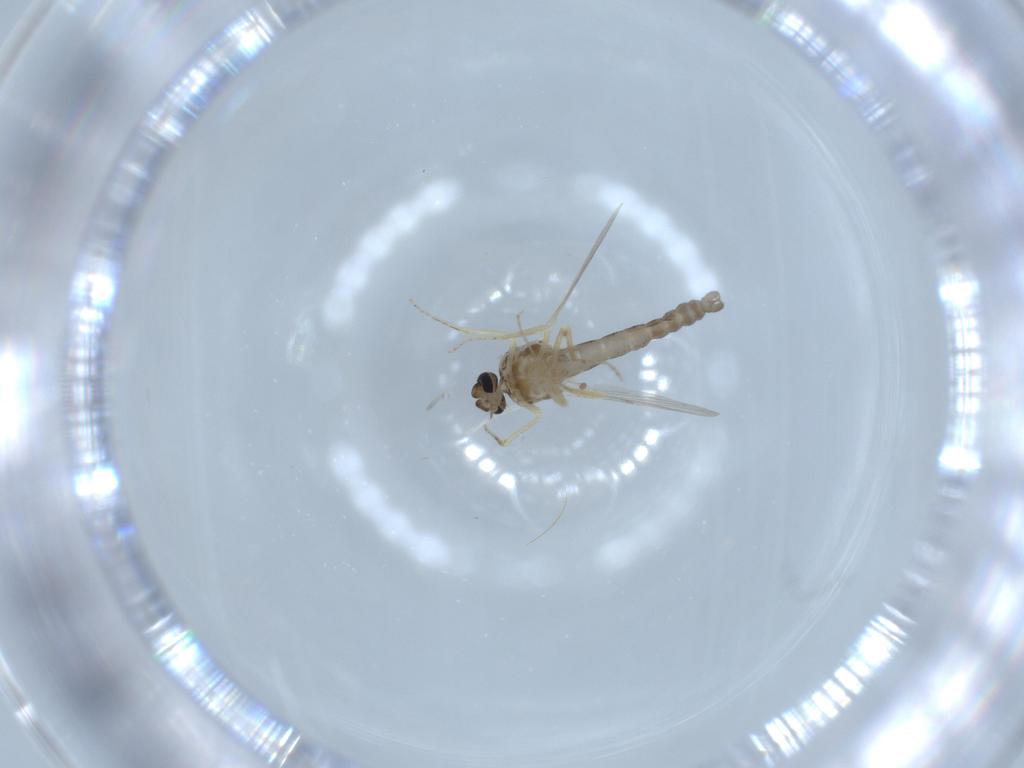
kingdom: Animalia
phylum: Arthropoda
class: Insecta
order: Diptera
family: Ceratopogonidae
